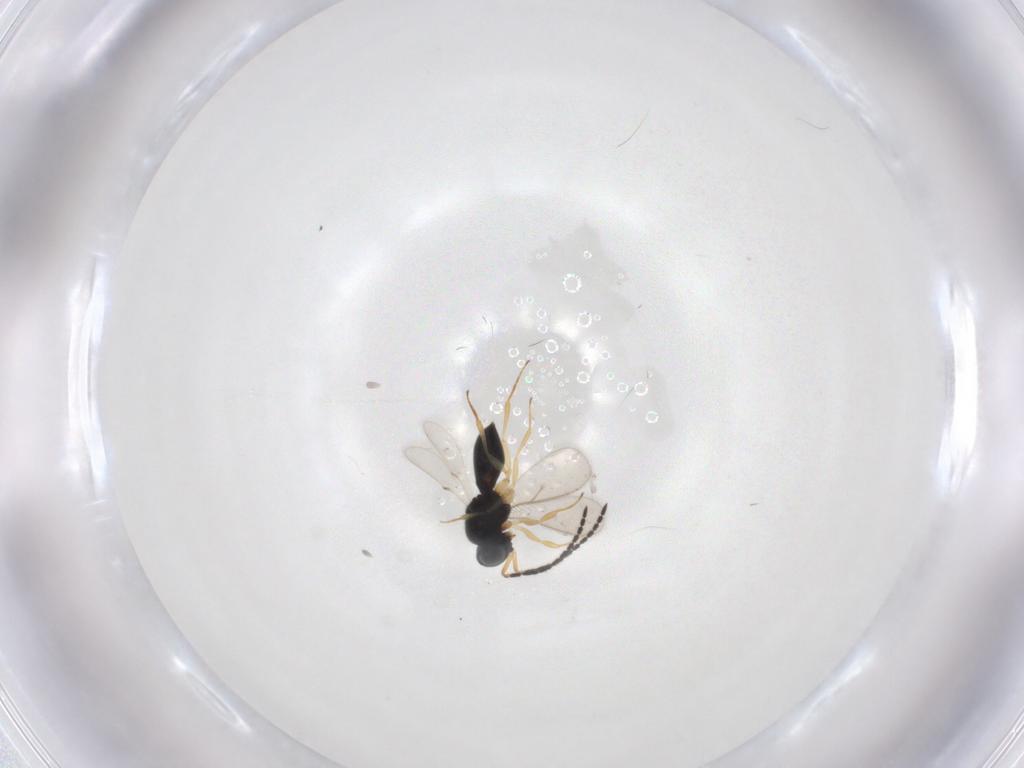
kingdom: Animalia
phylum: Arthropoda
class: Insecta
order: Hymenoptera
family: Scelionidae
